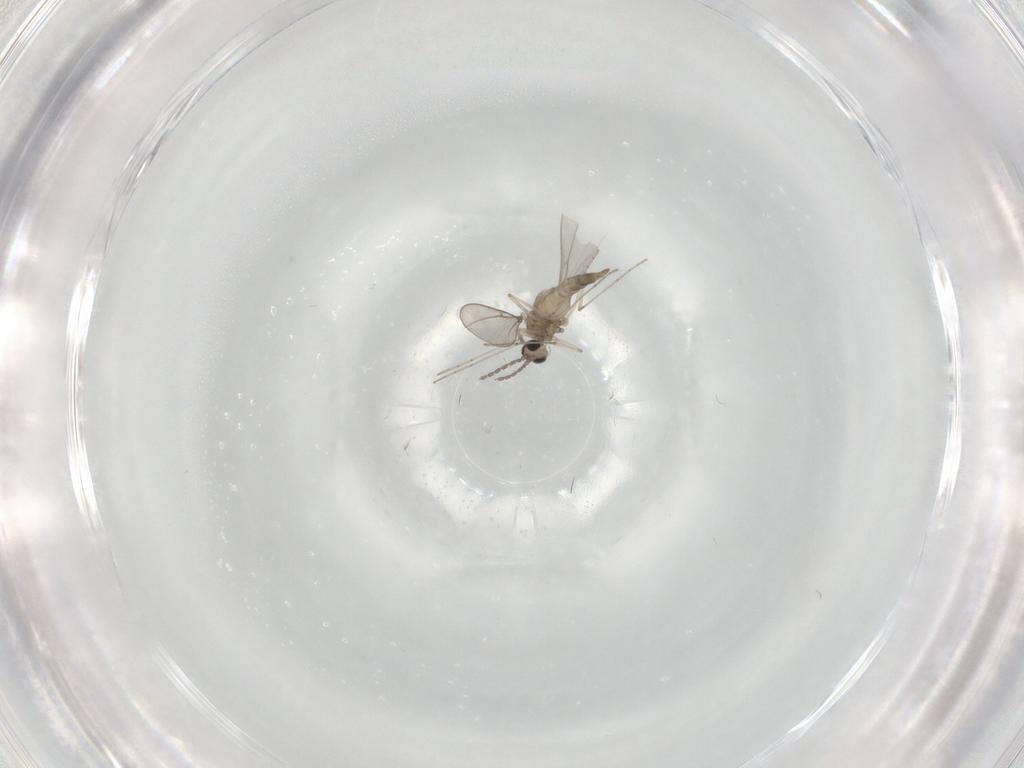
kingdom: Animalia
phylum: Arthropoda
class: Insecta
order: Diptera
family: Cecidomyiidae
